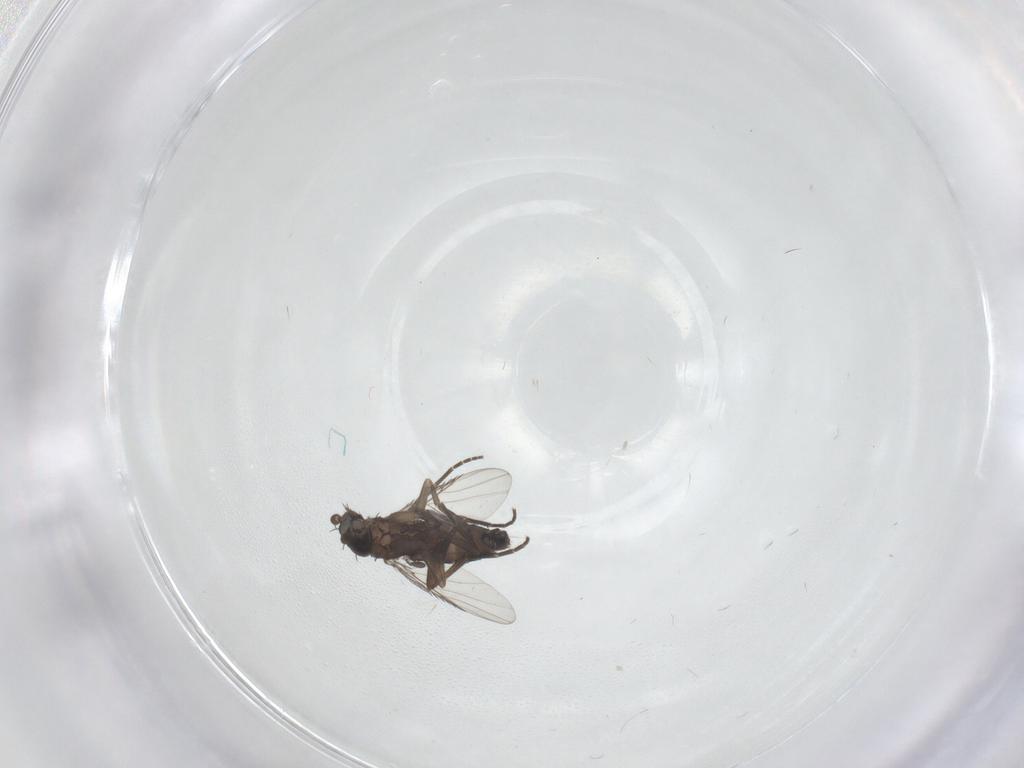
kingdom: Animalia
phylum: Arthropoda
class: Insecta
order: Diptera
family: Phoridae
